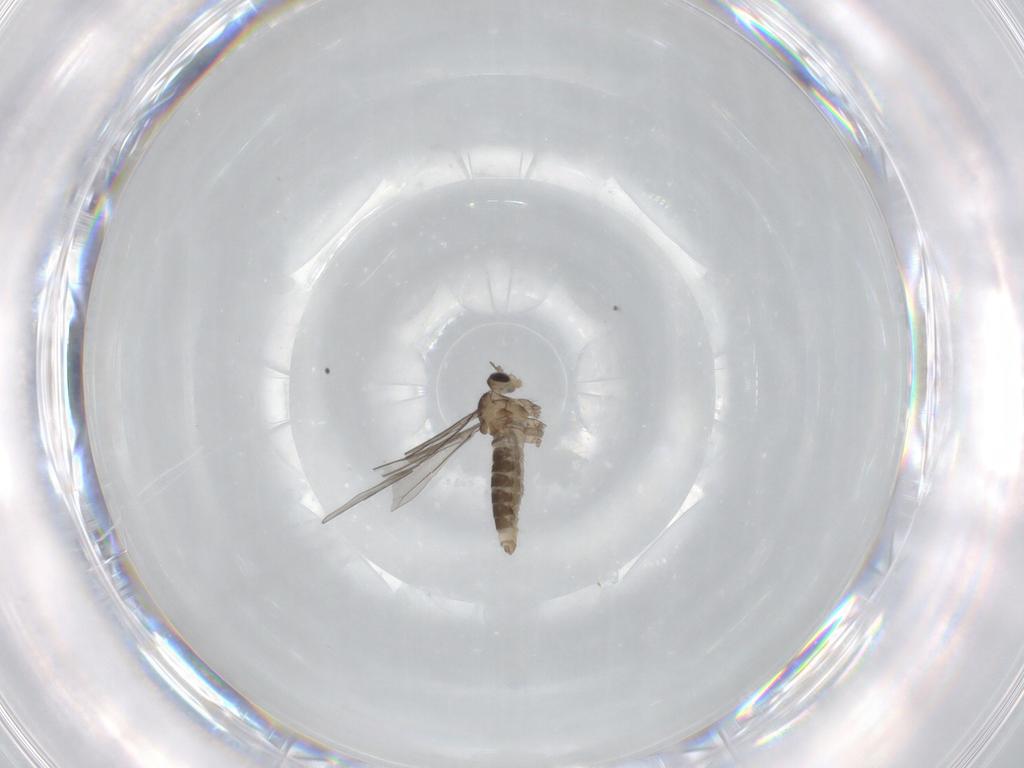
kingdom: Animalia
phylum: Arthropoda
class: Insecta
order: Diptera
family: Cecidomyiidae
